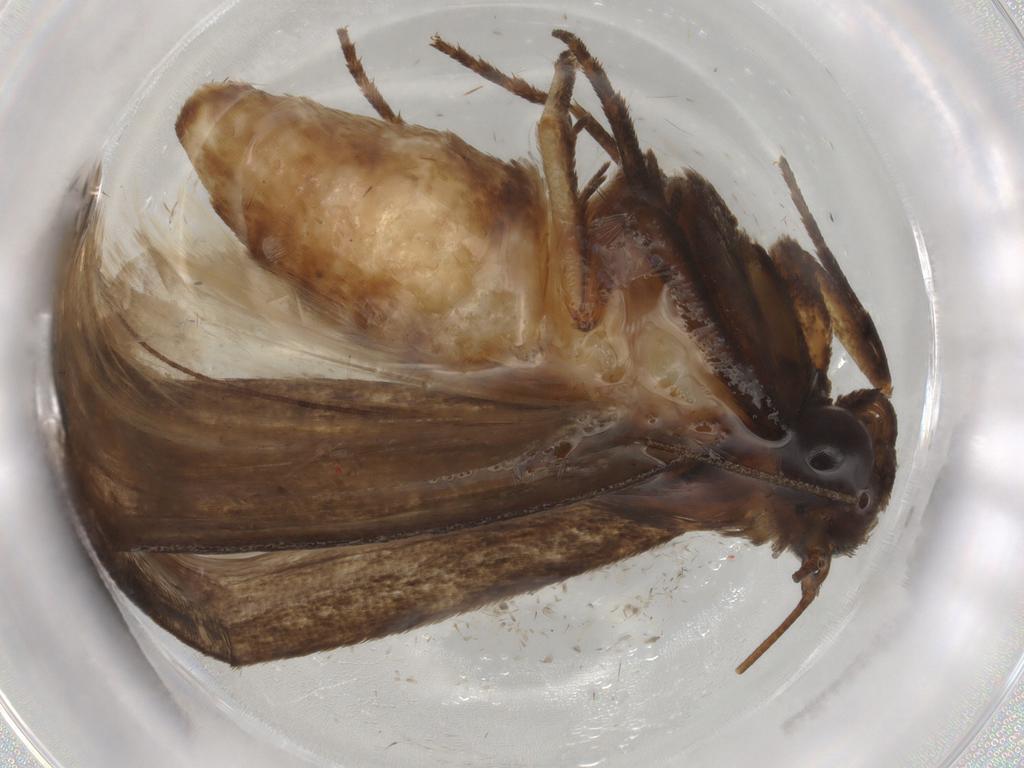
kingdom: Animalia
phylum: Arthropoda
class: Insecta
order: Lepidoptera
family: Pyralidae
